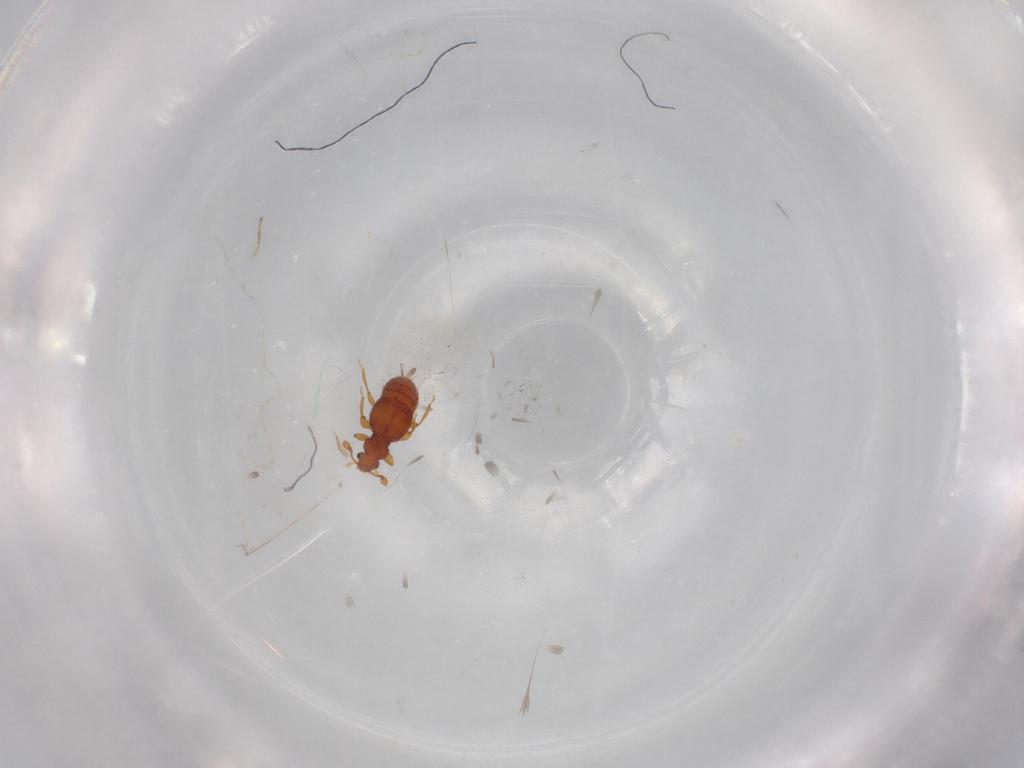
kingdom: Animalia
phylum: Arthropoda
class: Insecta
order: Coleoptera
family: Staphylinidae
